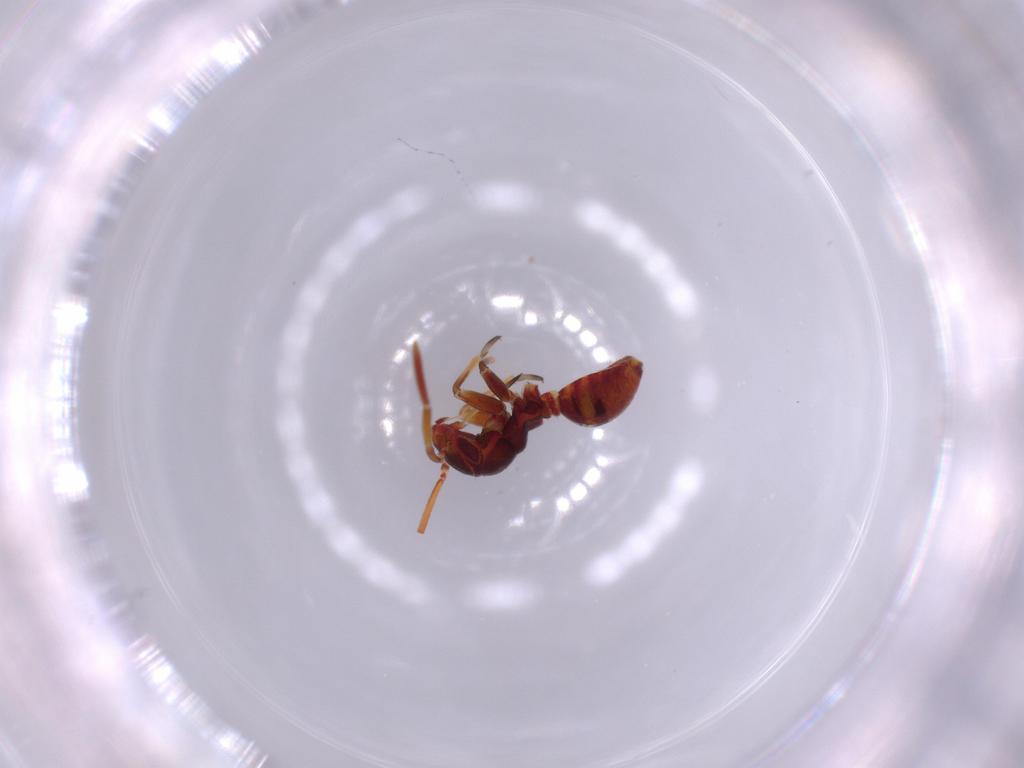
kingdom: Animalia
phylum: Arthropoda
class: Insecta
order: Hemiptera
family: Miridae
